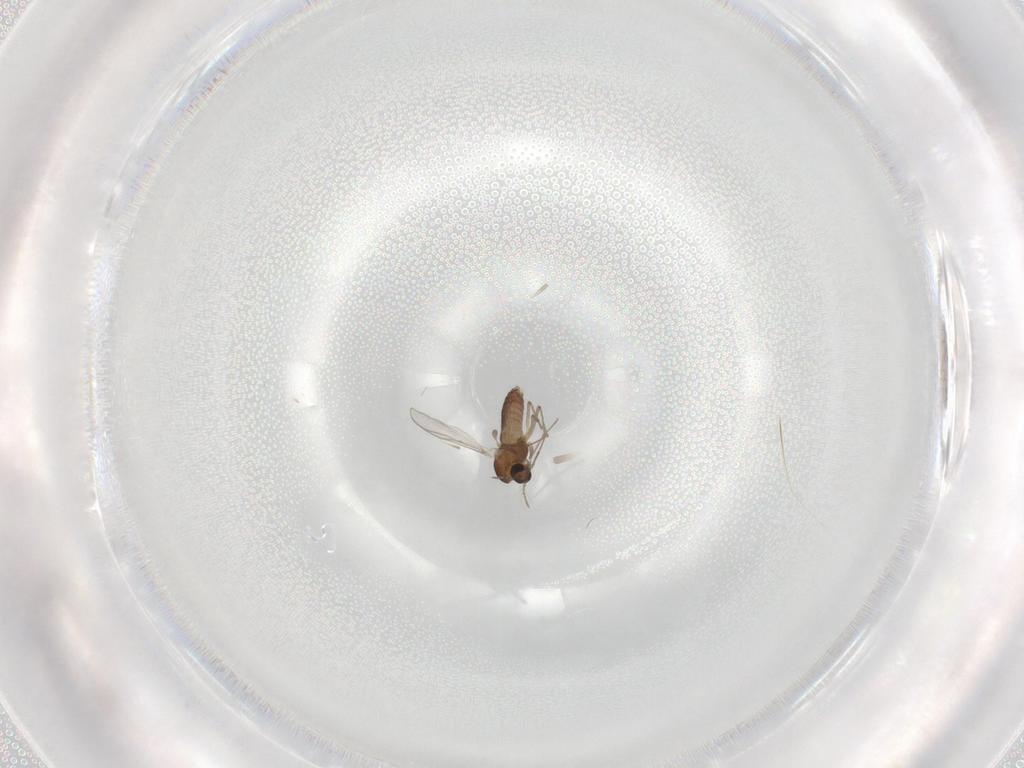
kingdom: Animalia
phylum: Arthropoda
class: Insecta
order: Diptera
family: Chironomidae
